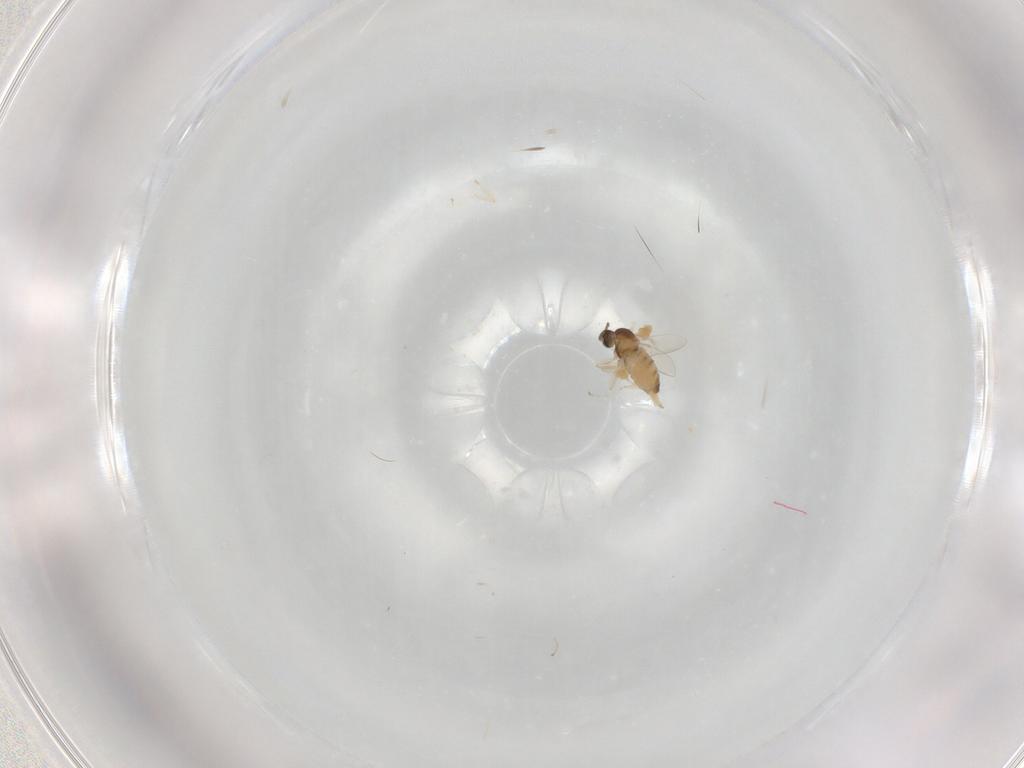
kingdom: Animalia
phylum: Arthropoda
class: Insecta
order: Diptera
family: Cecidomyiidae
